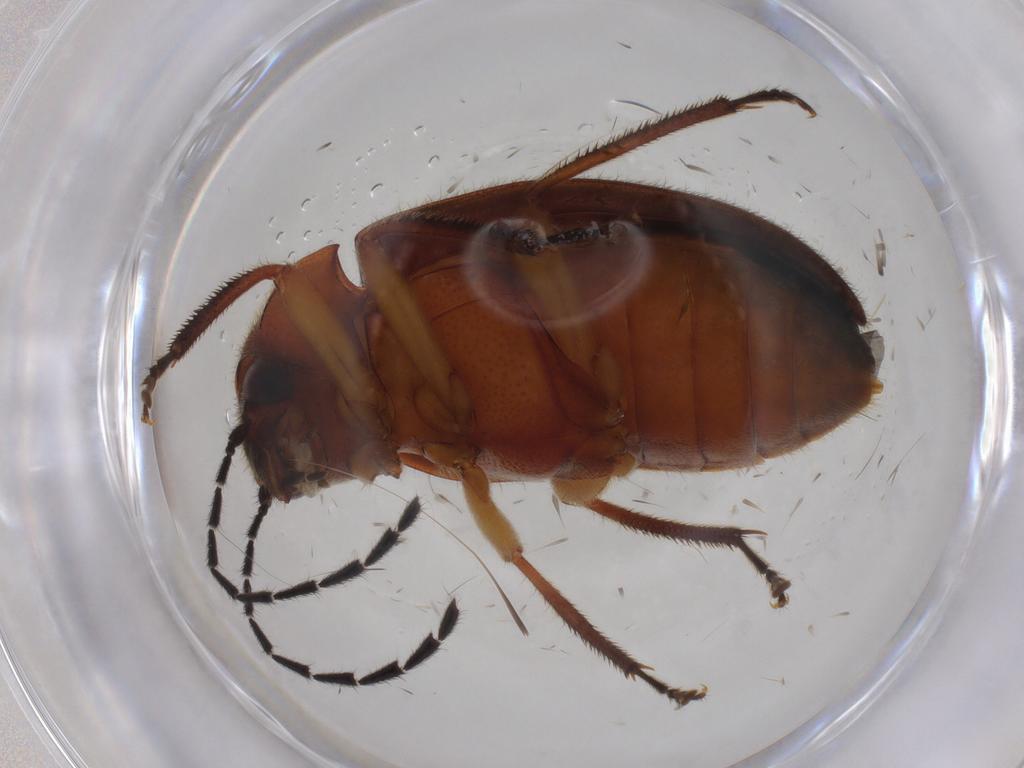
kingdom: Animalia
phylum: Arthropoda
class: Insecta
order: Coleoptera
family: Ptilodactylidae
